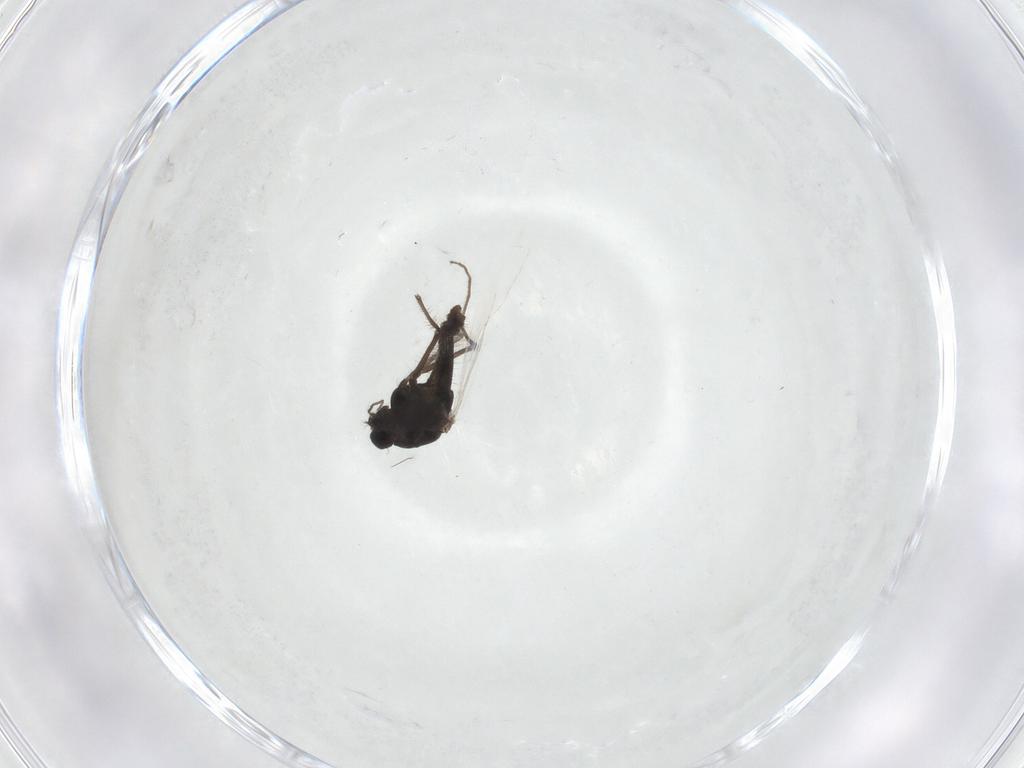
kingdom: Animalia
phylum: Arthropoda
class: Insecta
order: Diptera
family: Chironomidae
